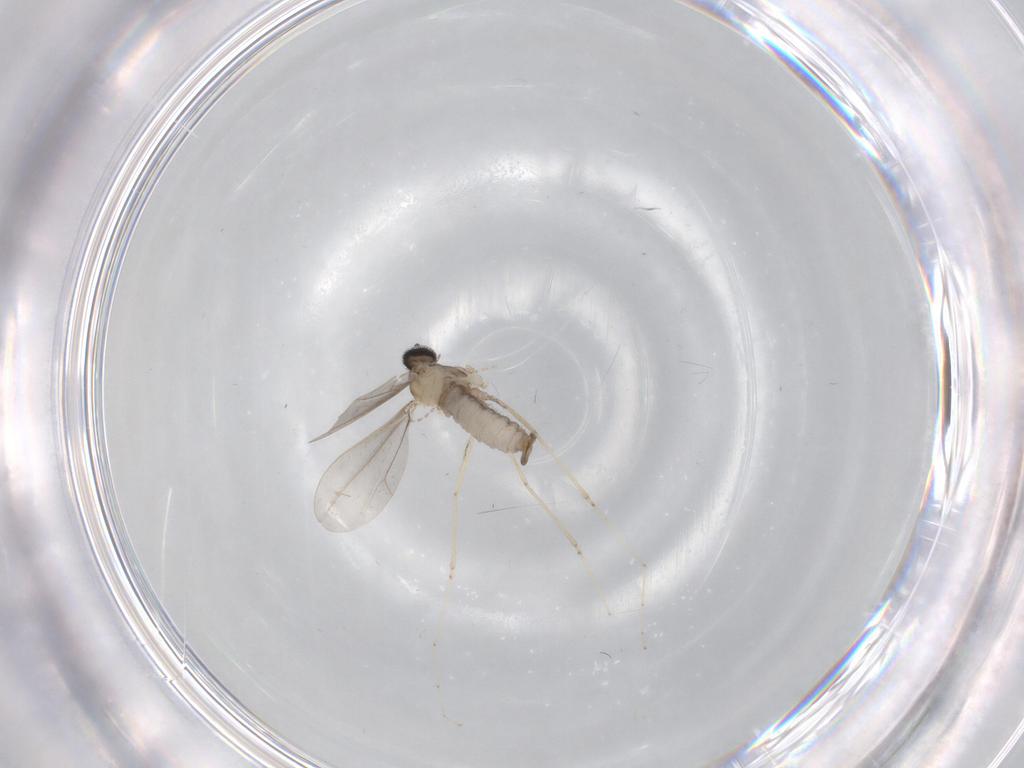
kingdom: Animalia
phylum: Arthropoda
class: Insecta
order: Diptera
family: Cecidomyiidae
